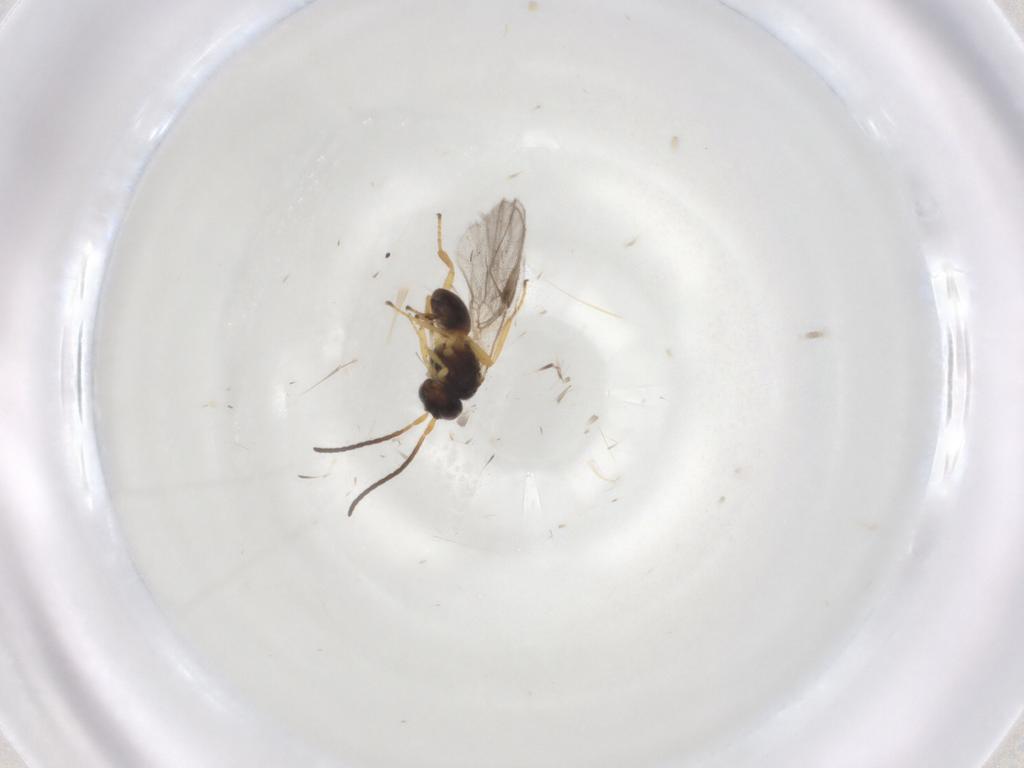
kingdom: Animalia
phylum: Arthropoda
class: Insecta
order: Hymenoptera
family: Braconidae
